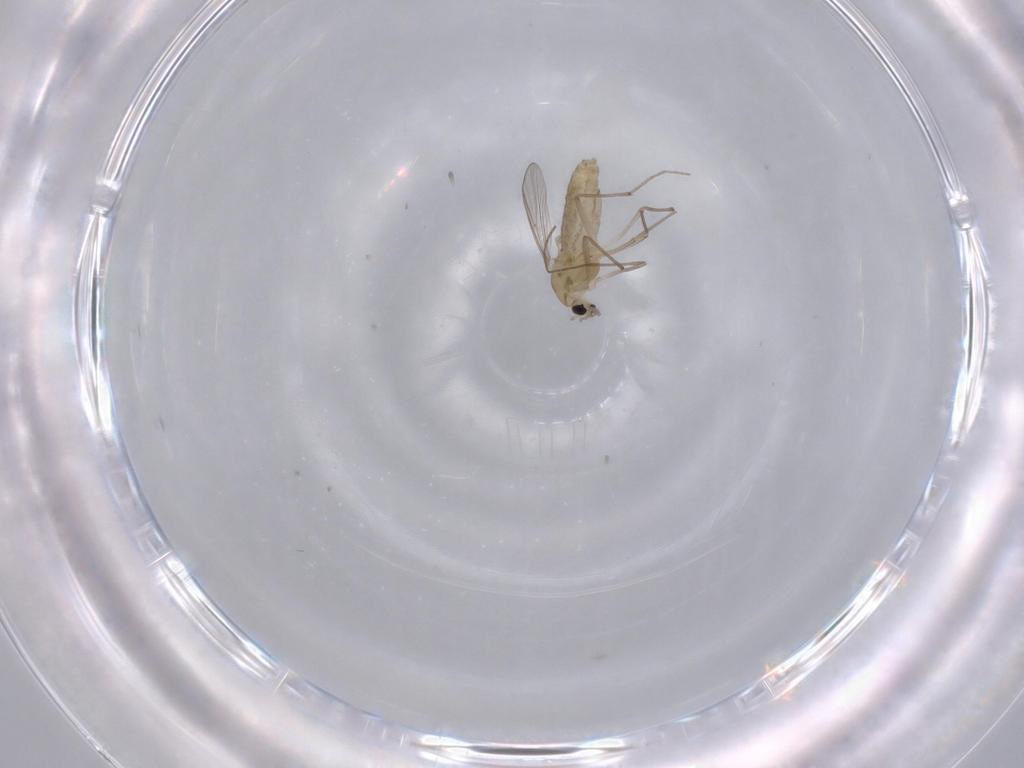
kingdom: Animalia
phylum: Arthropoda
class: Insecta
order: Diptera
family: Chironomidae
